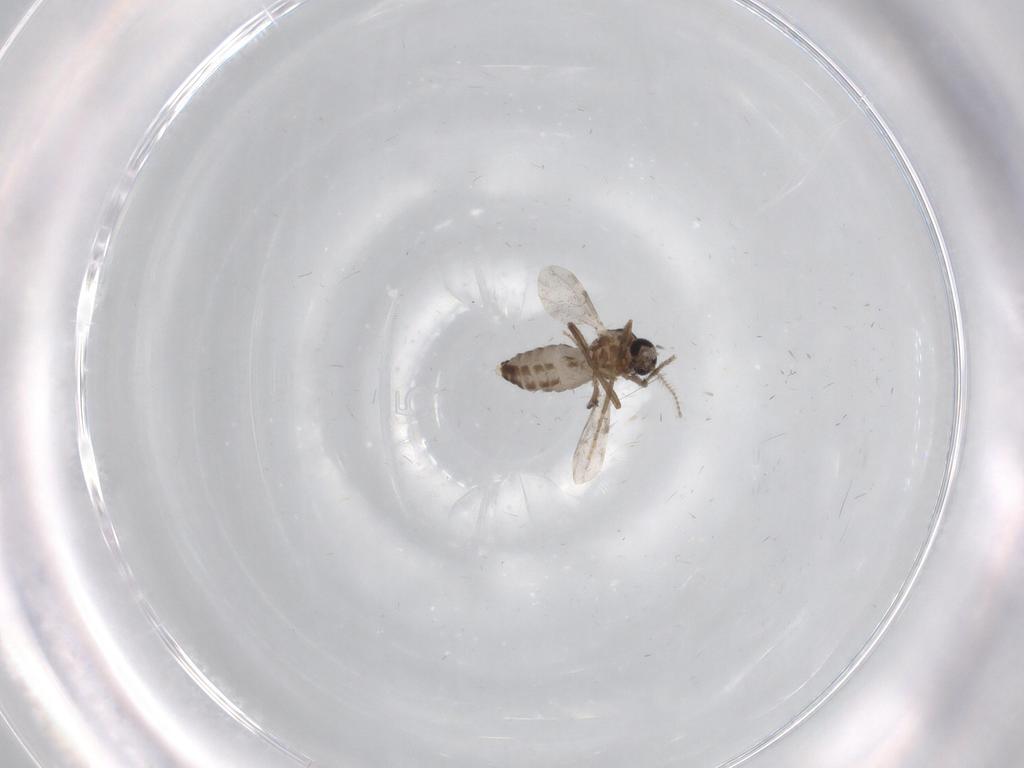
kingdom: Animalia
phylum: Arthropoda
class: Insecta
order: Diptera
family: Ceratopogonidae
